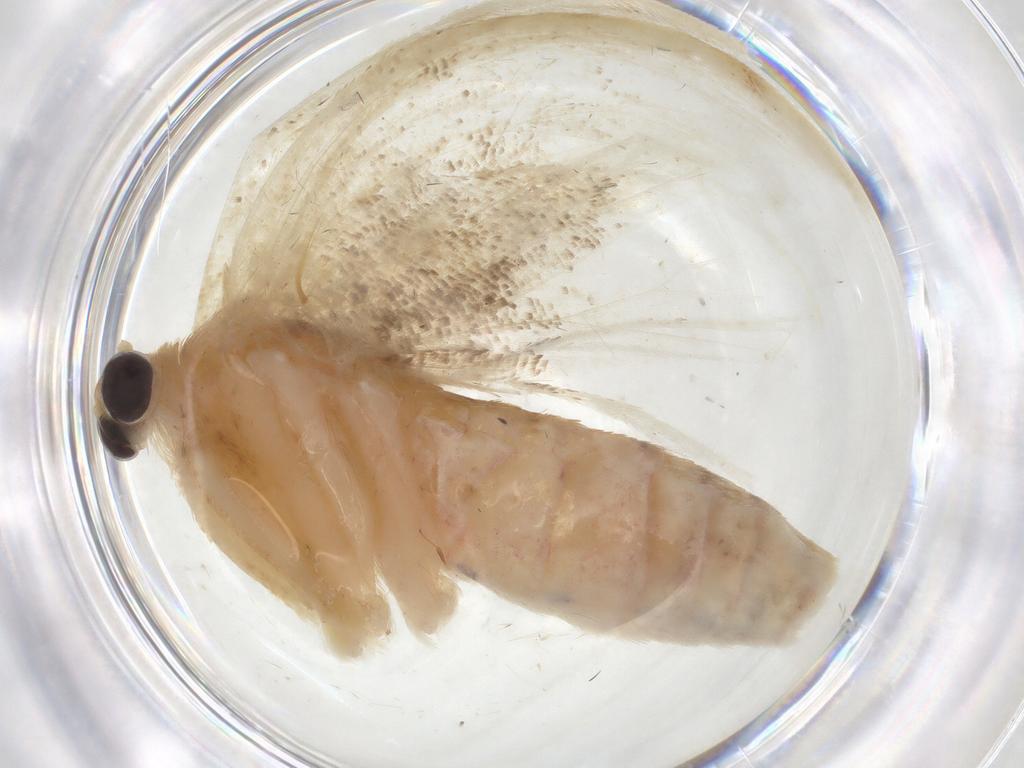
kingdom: Animalia
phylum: Arthropoda
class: Insecta
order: Lepidoptera
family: Geometridae
